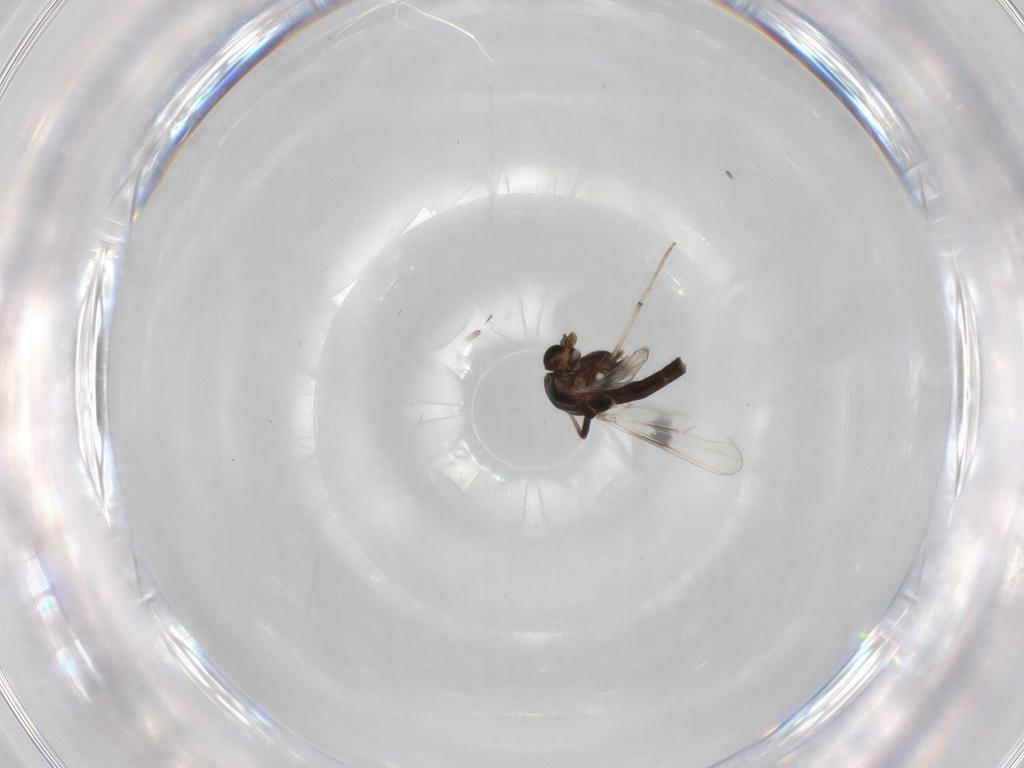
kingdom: Animalia
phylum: Arthropoda
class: Insecta
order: Diptera
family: Chironomidae
